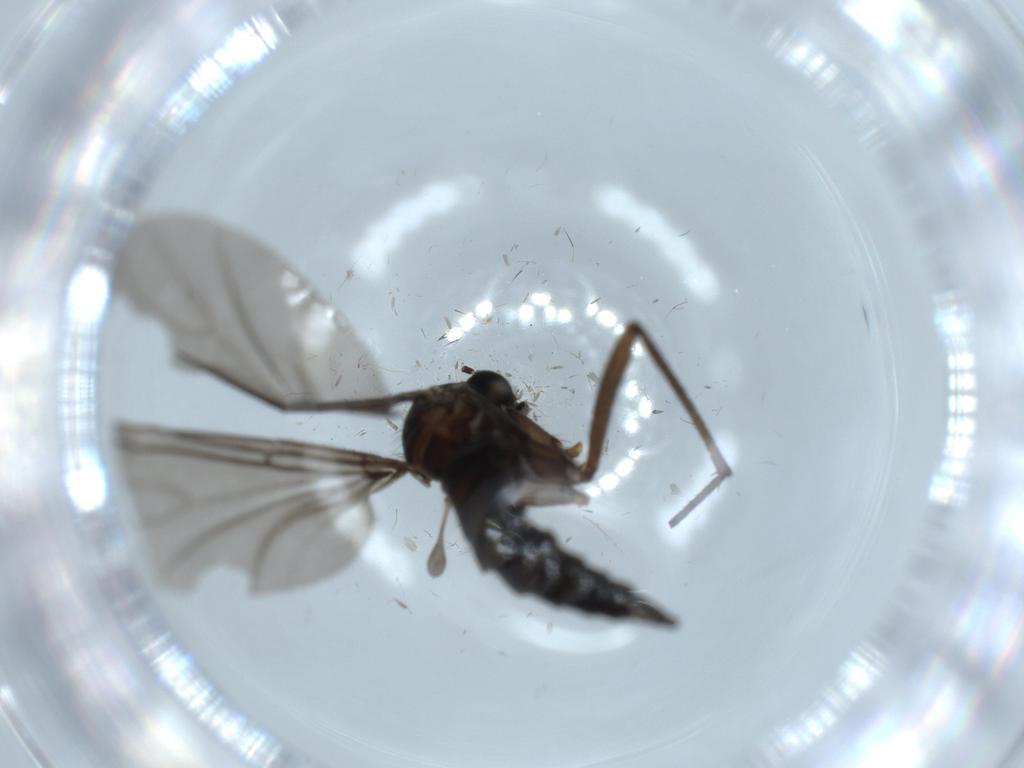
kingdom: Animalia
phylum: Arthropoda
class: Insecta
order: Diptera
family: Sciaridae
